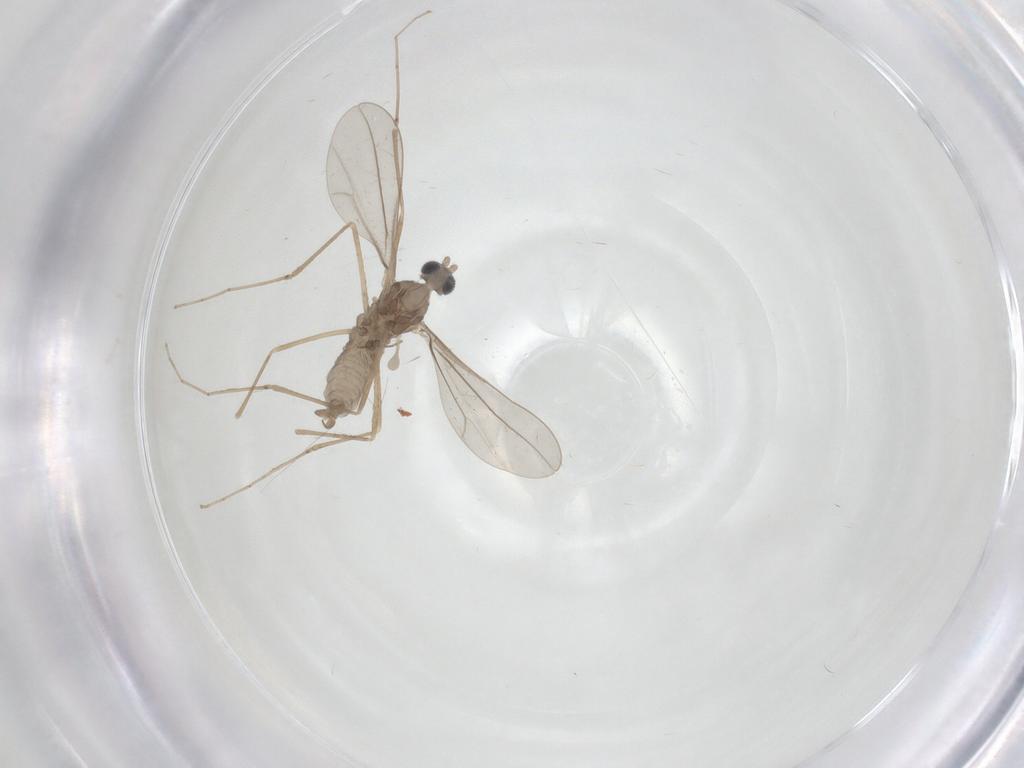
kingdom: Animalia
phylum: Arthropoda
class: Insecta
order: Diptera
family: Cecidomyiidae
